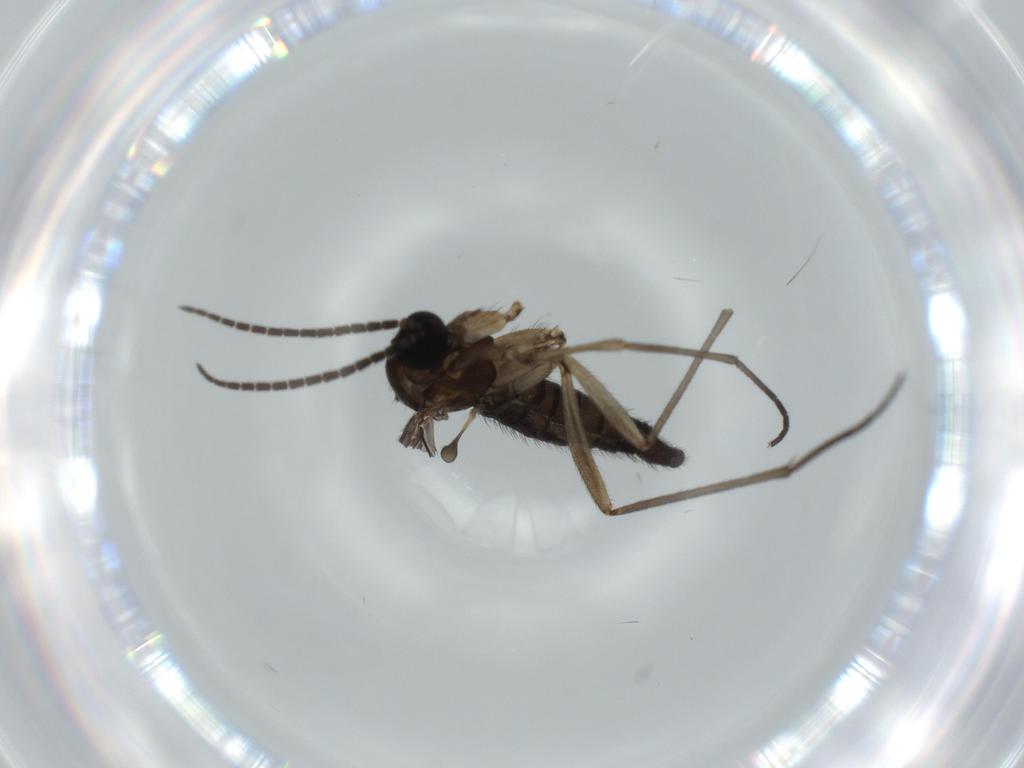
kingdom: Animalia
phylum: Arthropoda
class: Insecta
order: Diptera
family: Sciaridae
